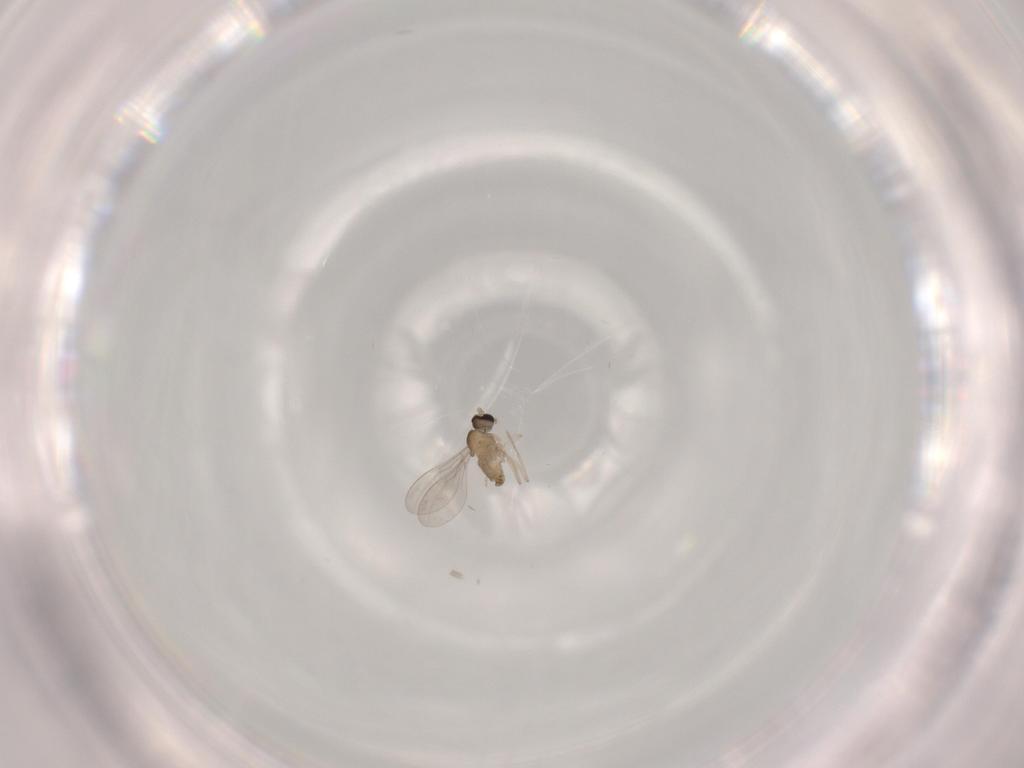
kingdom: Animalia
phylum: Arthropoda
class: Insecta
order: Diptera
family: Cecidomyiidae
